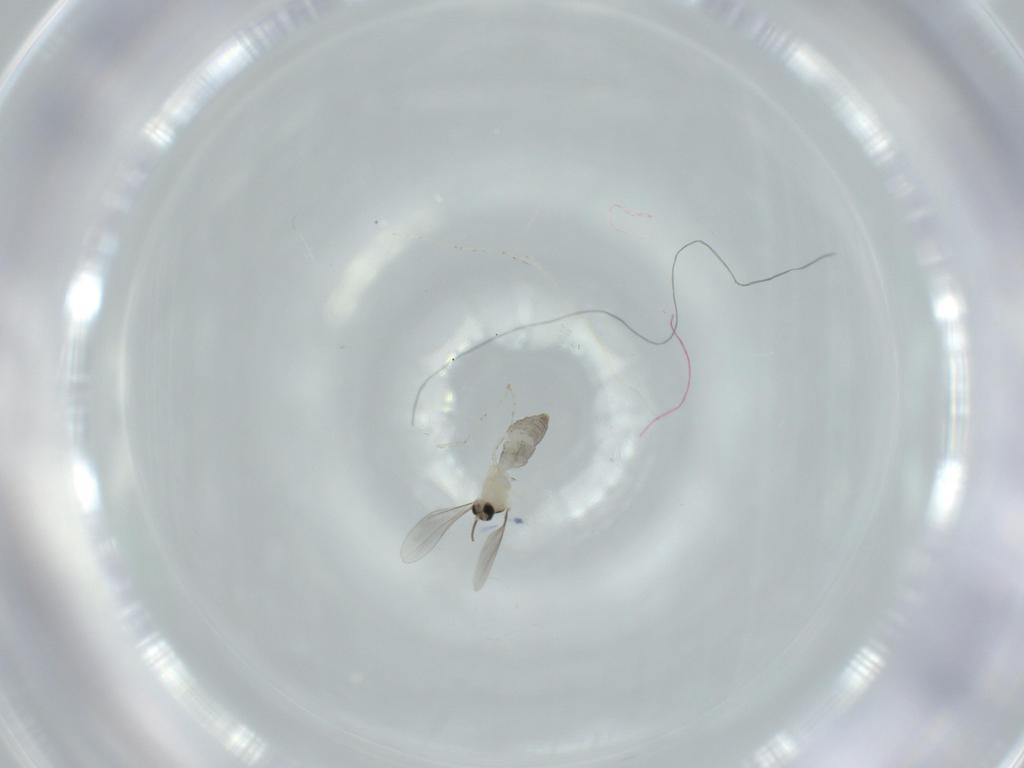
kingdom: Animalia
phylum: Arthropoda
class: Insecta
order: Diptera
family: Cecidomyiidae
